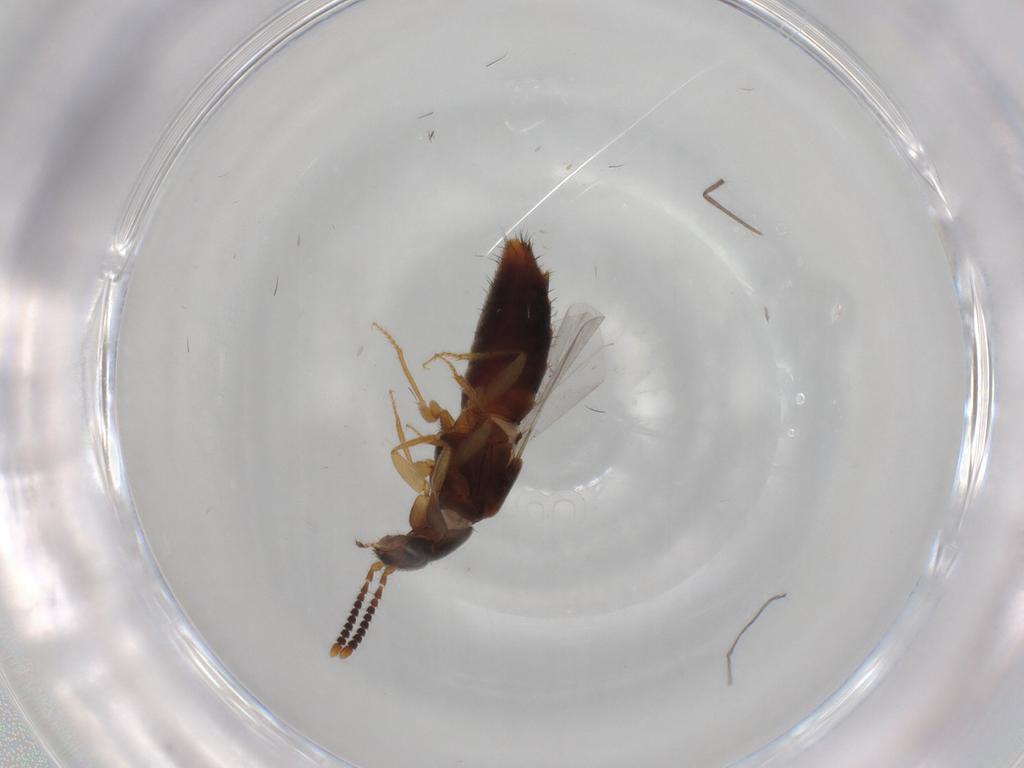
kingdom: Animalia
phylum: Arthropoda
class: Insecta
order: Coleoptera
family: Staphylinidae
